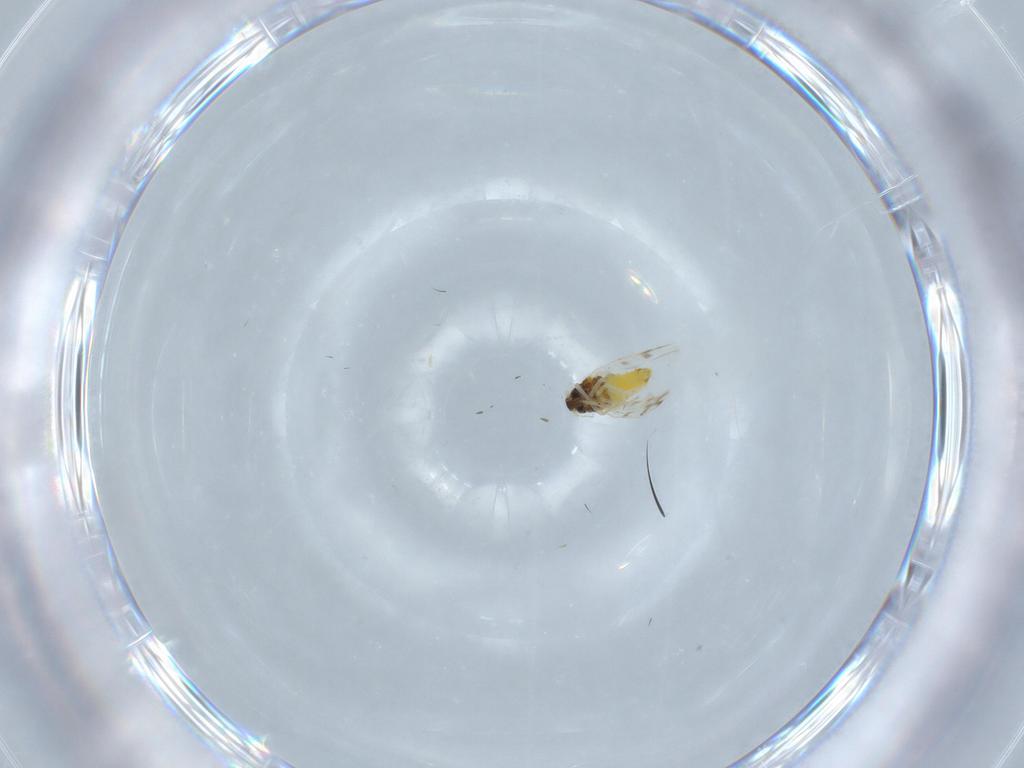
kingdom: Animalia
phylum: Arthropoda
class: Insecta
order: Hemiptera
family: Aleyrodidae
